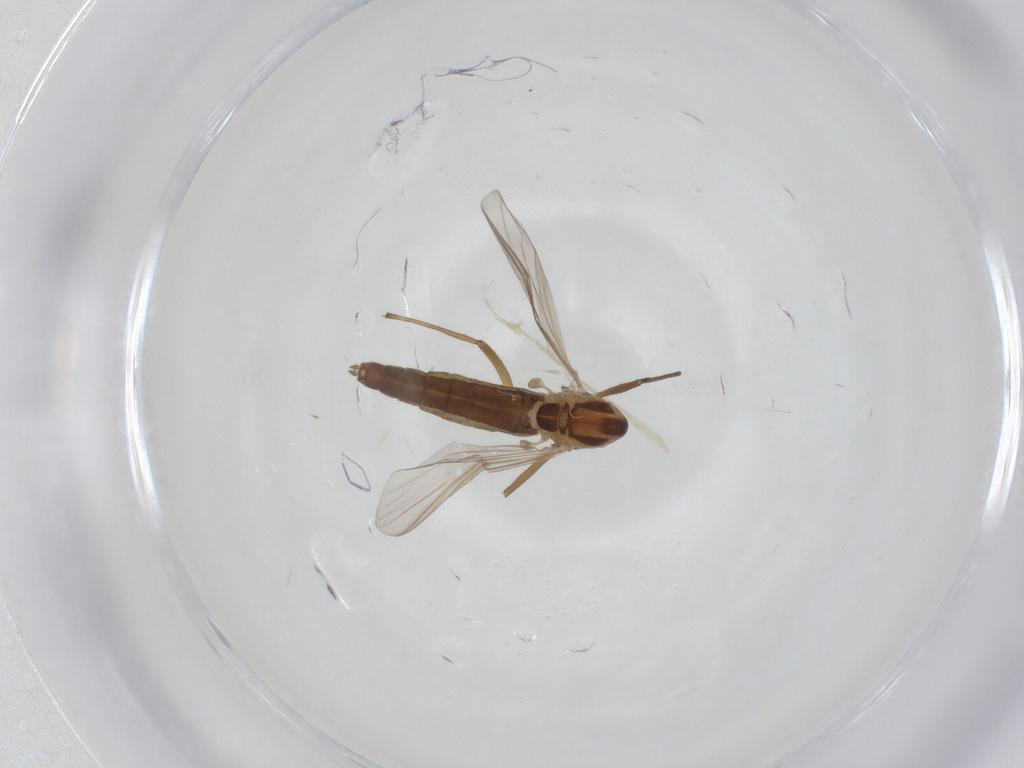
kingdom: Animalia
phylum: Arthropoda
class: Insecta
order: Diptera
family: Chironomidae
